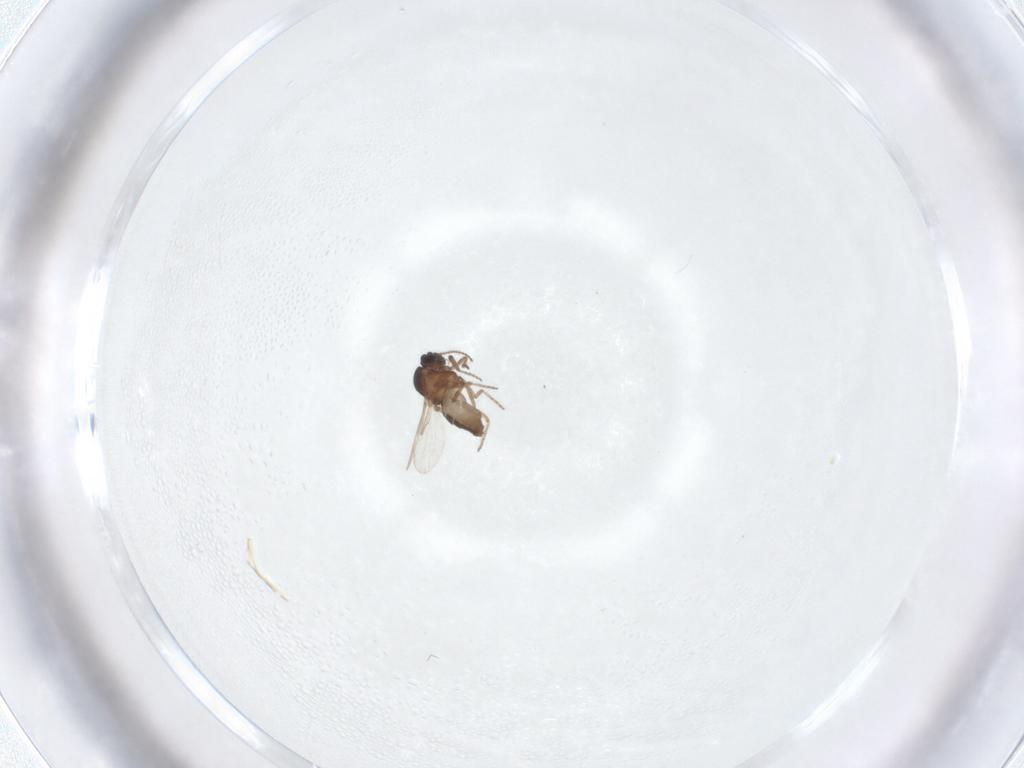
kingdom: Animalia
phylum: Arthropoda
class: Insecta
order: Diptera
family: Ceratopogonidae
